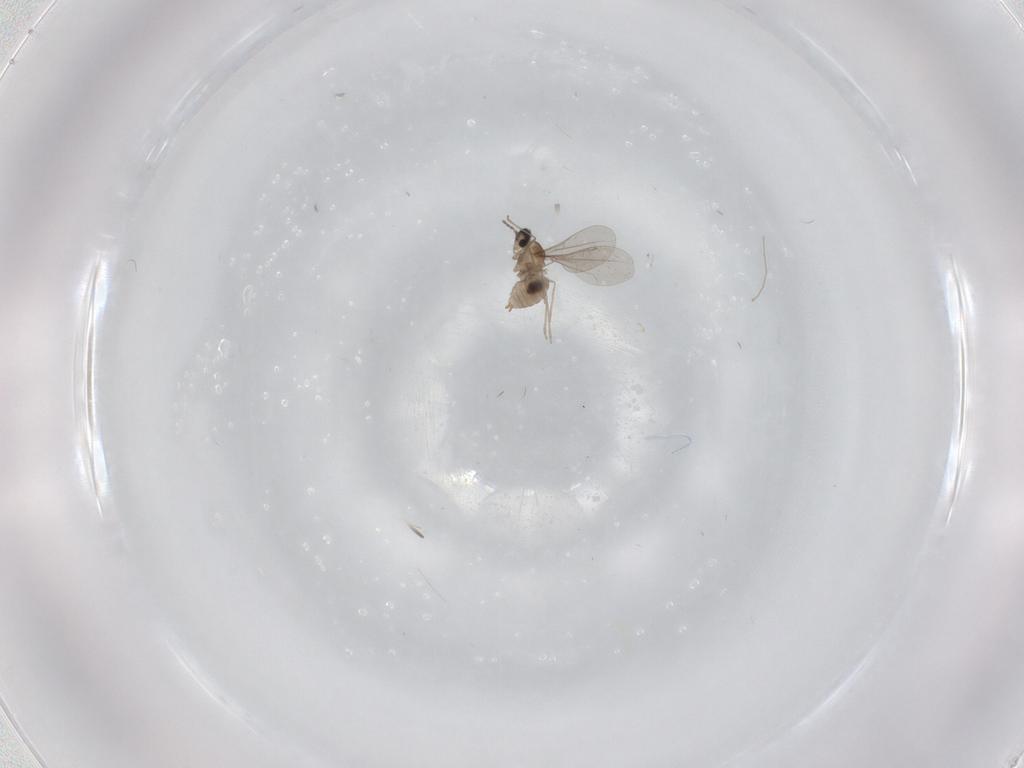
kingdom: Animalia
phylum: Arthropoda
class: Insecta
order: Diptera
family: Cecidomyiidae
